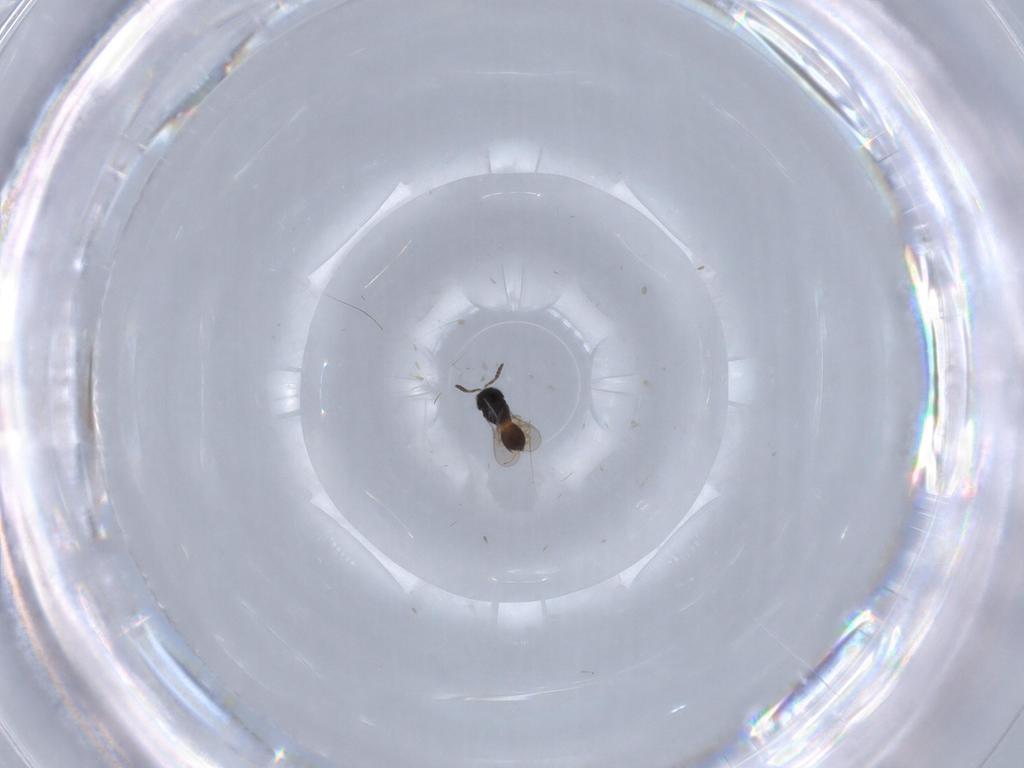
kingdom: Animalia
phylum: Arthropoda
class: Insecta
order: Hymenoptera
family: Scelionidae
